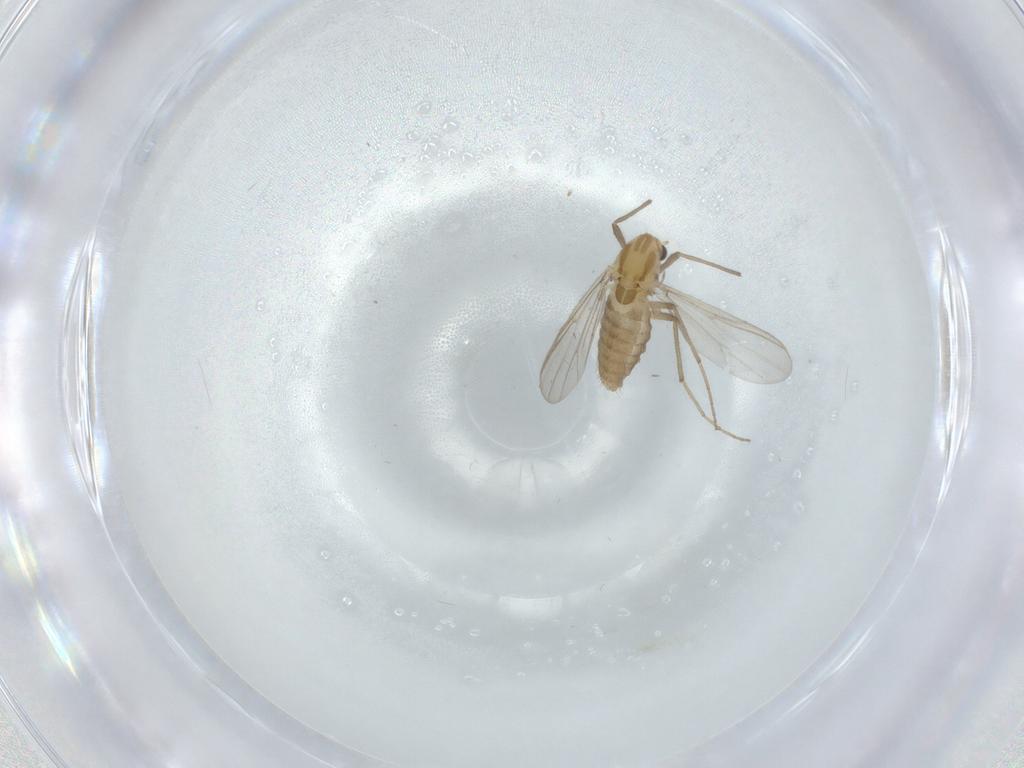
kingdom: Animalia
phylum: Arthropoda
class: Insecta
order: Diptera
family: Chironomidae
